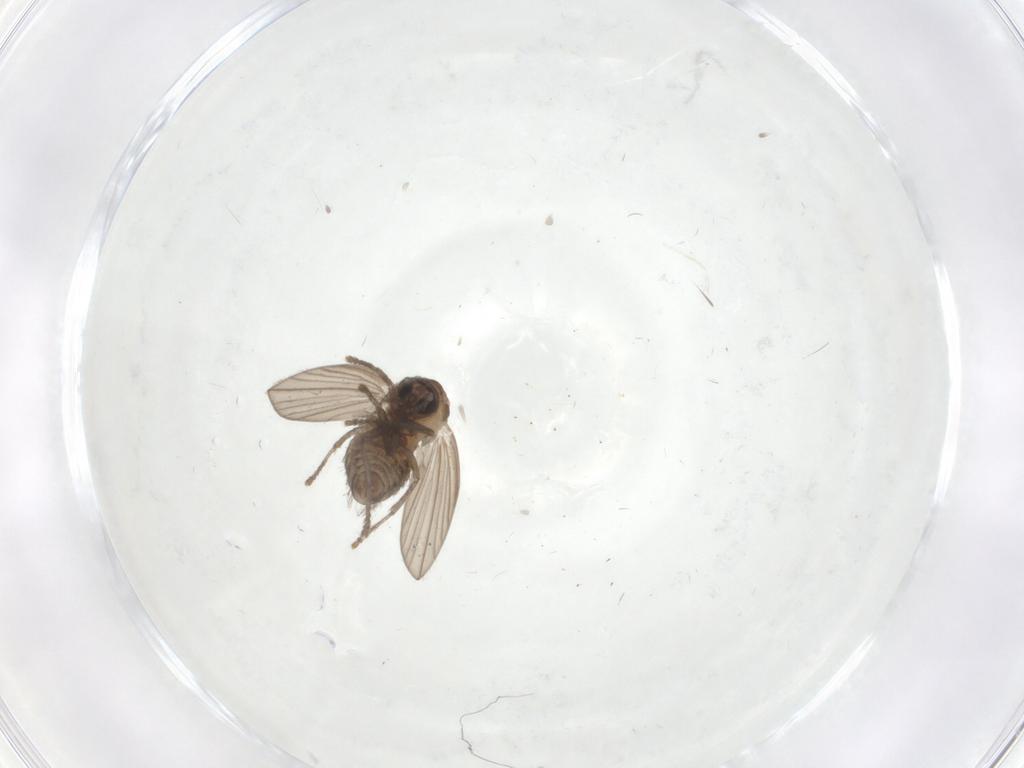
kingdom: Animalia
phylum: Arthropoda
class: Insecta
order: Diptera
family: Psychodidae
